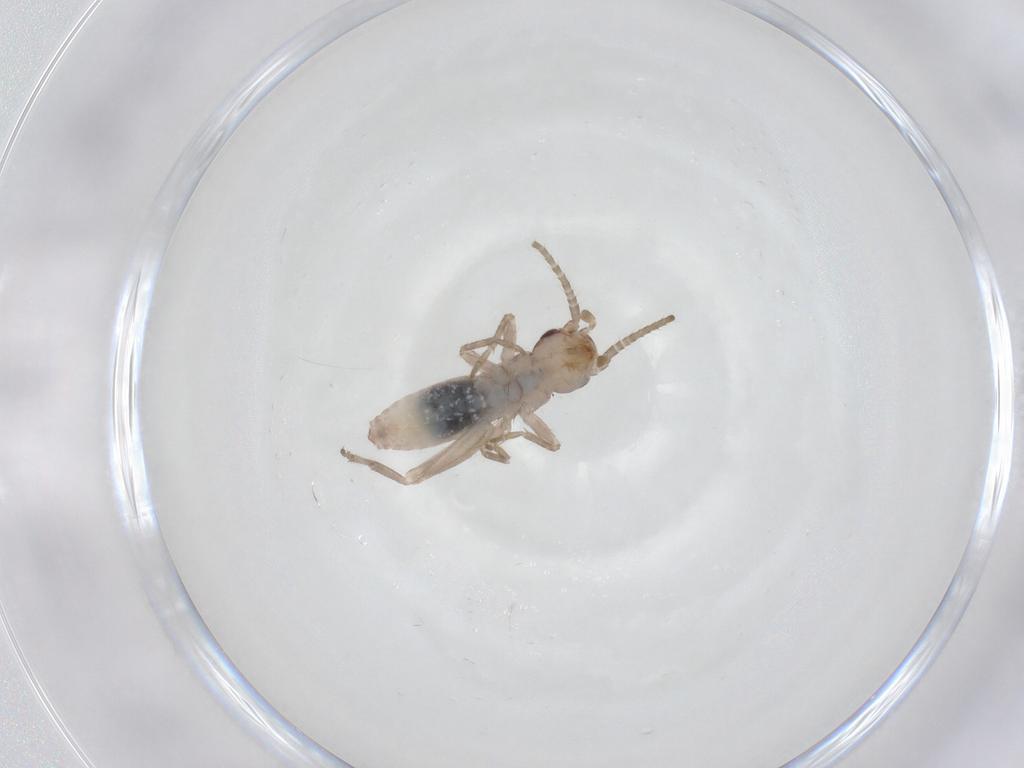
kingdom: Animalia
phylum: Arthropoda
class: Insecta
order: Orthoptera
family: Mogoplistidae
